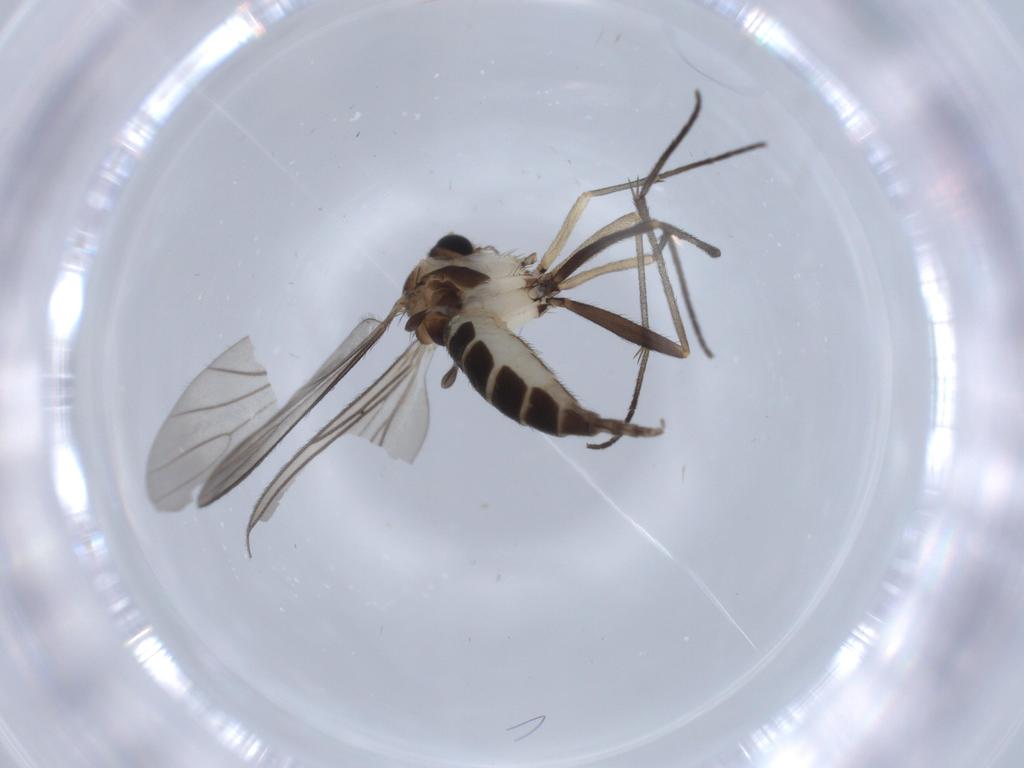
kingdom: Animalia
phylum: Arthropoda
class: Insecta
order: Diptera
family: Sciaridae
